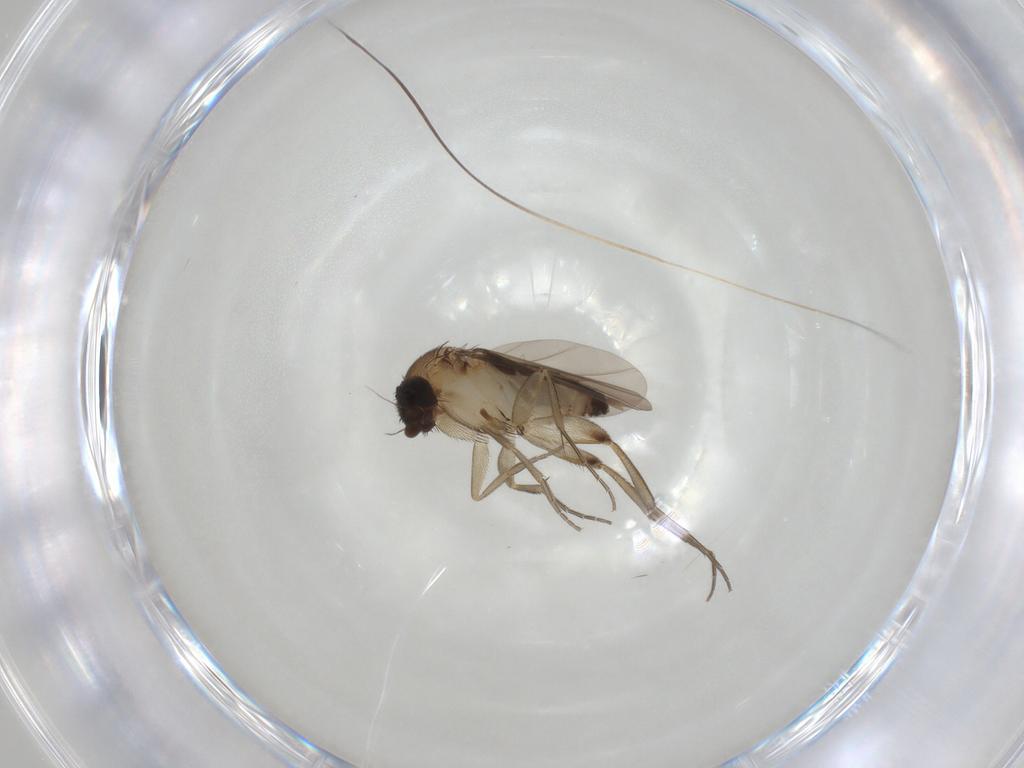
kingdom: Animalia
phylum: Arthropoda
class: Insecta
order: Diptera
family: Phoridae
